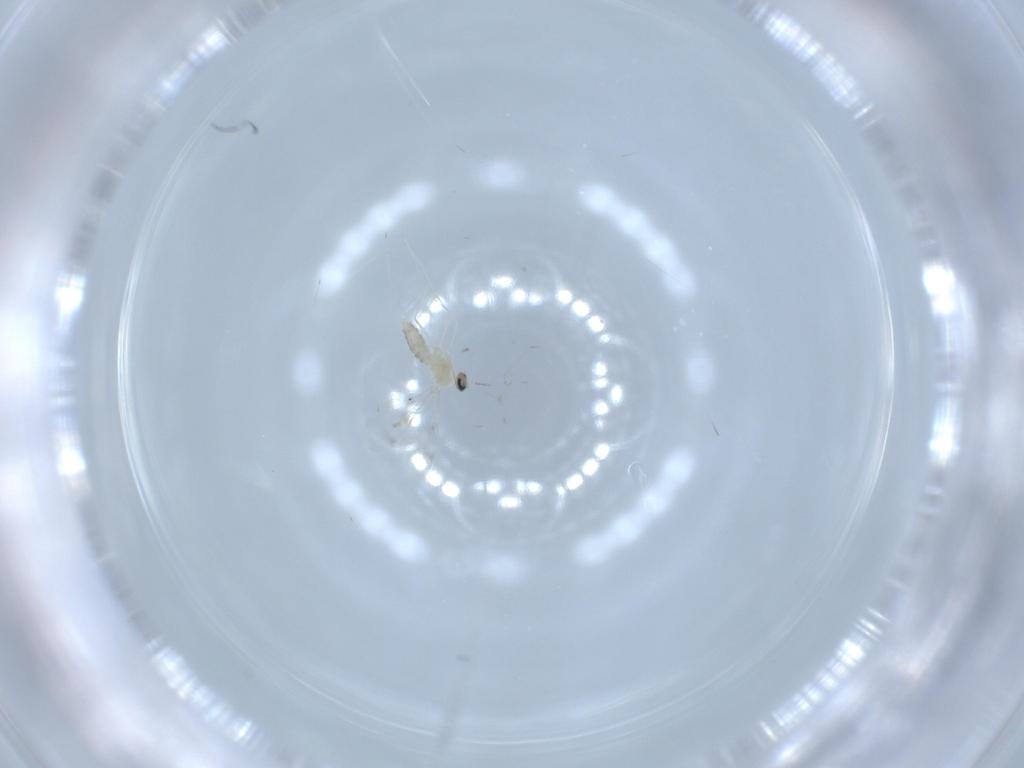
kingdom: Animalia
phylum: Arthropoda
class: Insecta
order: Diptera
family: Cecidomyiidae
